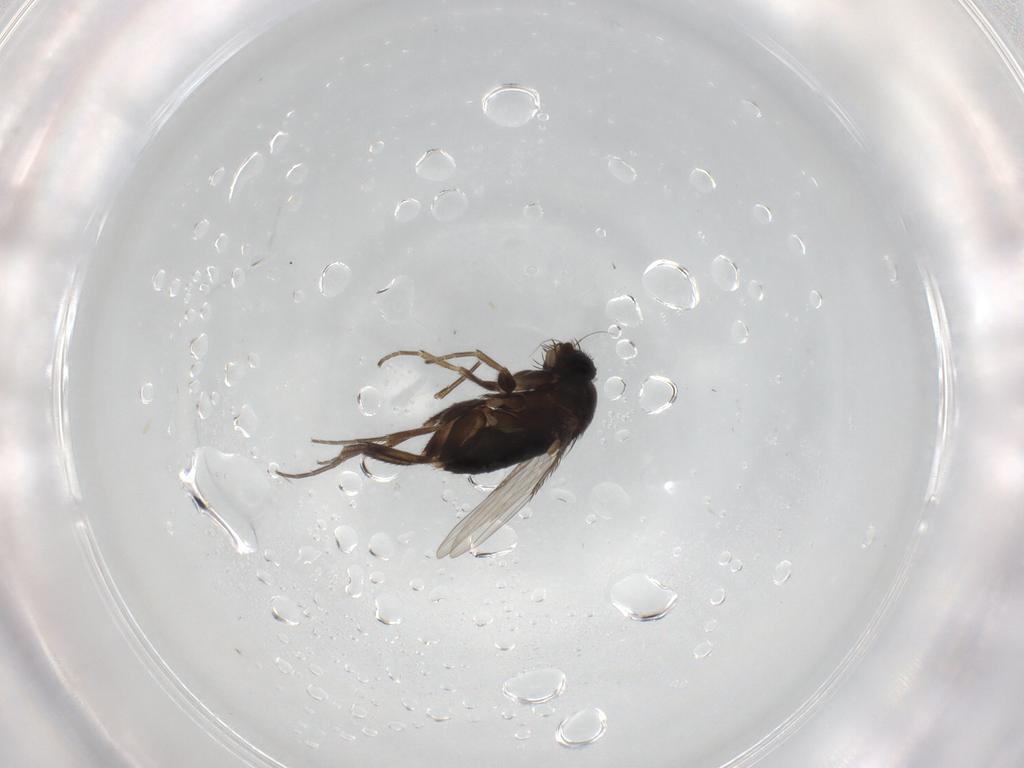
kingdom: Animalia
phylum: Arthropoda
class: Insecta
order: Diptera
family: Phoridae
